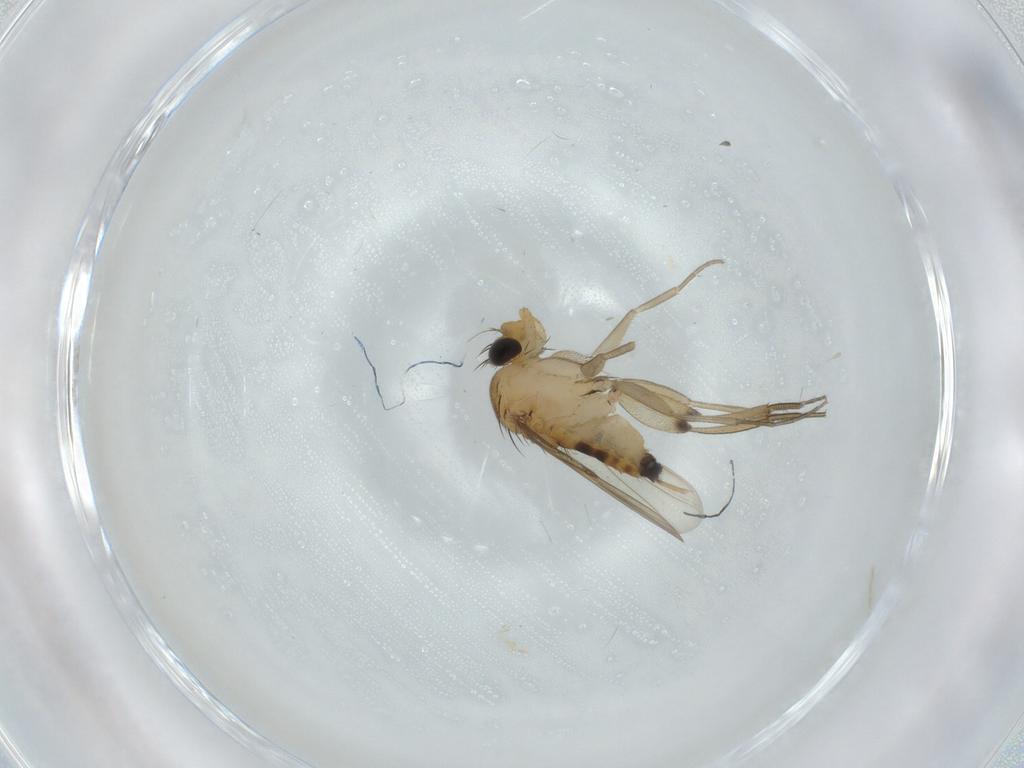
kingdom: Animalia
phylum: Arthropoda
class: Insecta
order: Diptera
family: Phoridae
